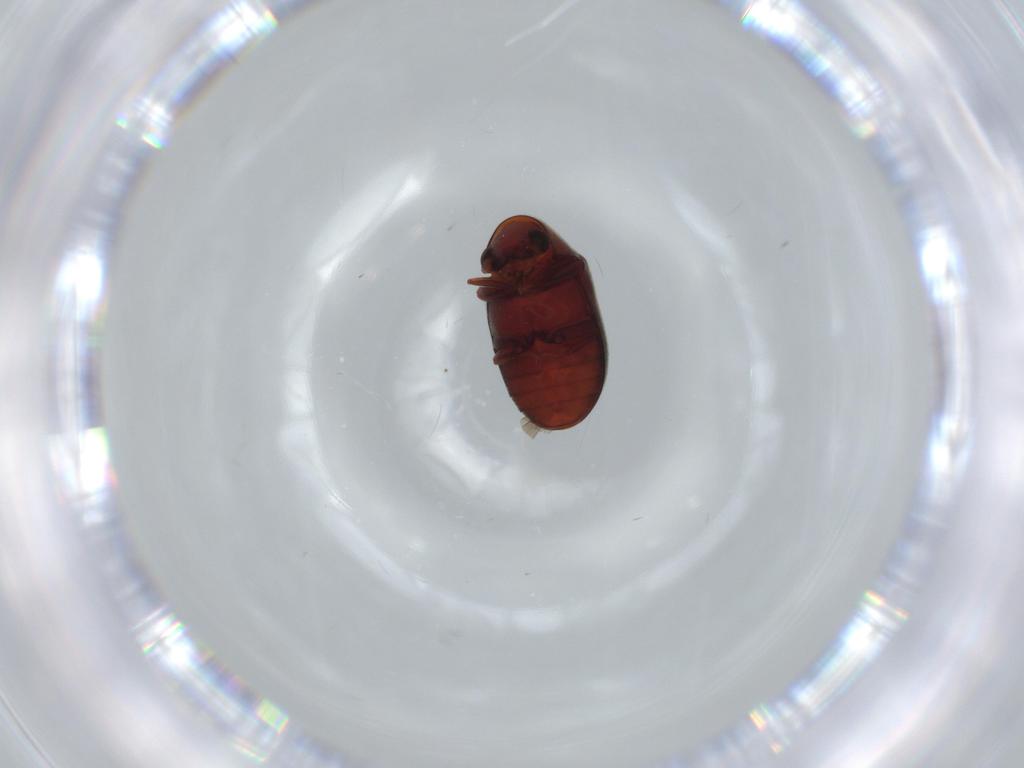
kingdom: Animalia
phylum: Arthropoda
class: Insecta
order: Coleoptera
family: Ptinidae
